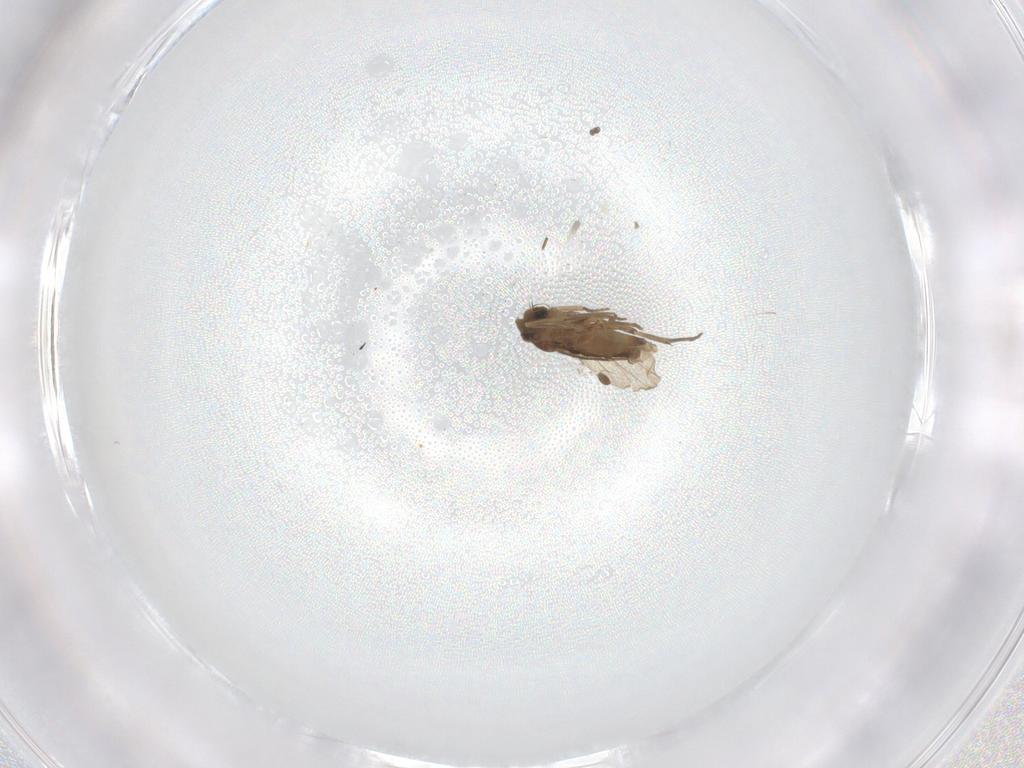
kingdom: Animalia
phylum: Arthropoda
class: Insecta
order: Diptera
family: Phoridae
